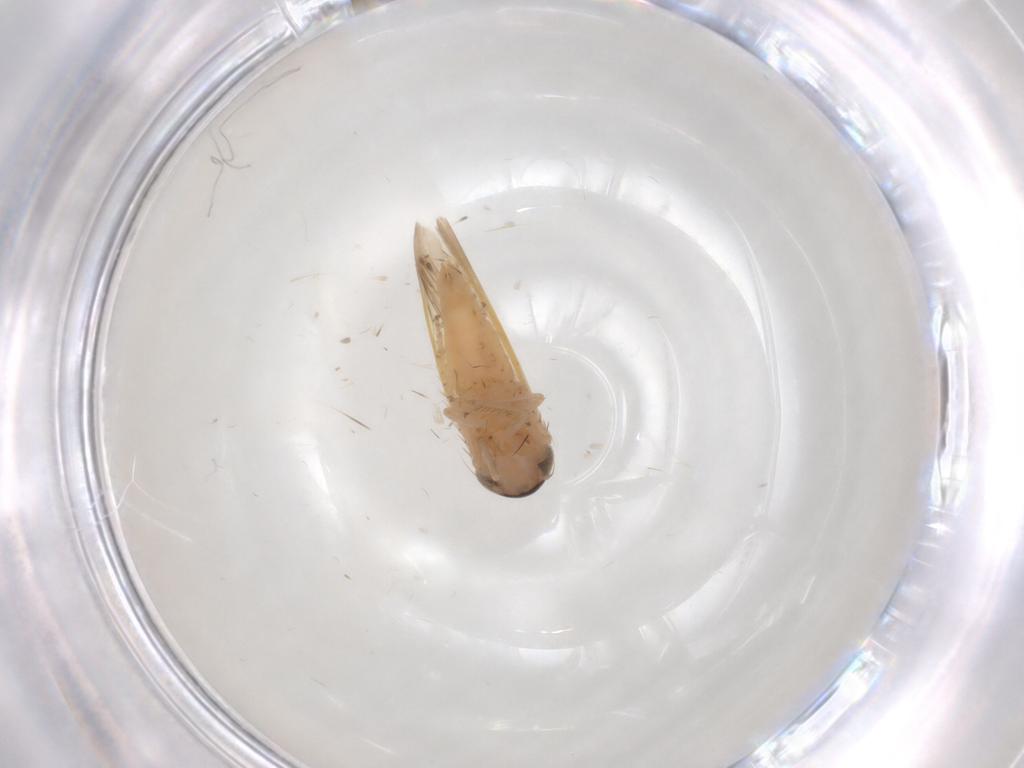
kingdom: Animalia
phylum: Arthropoda
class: Insecta
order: Hemiptera
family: Cicadellidae
